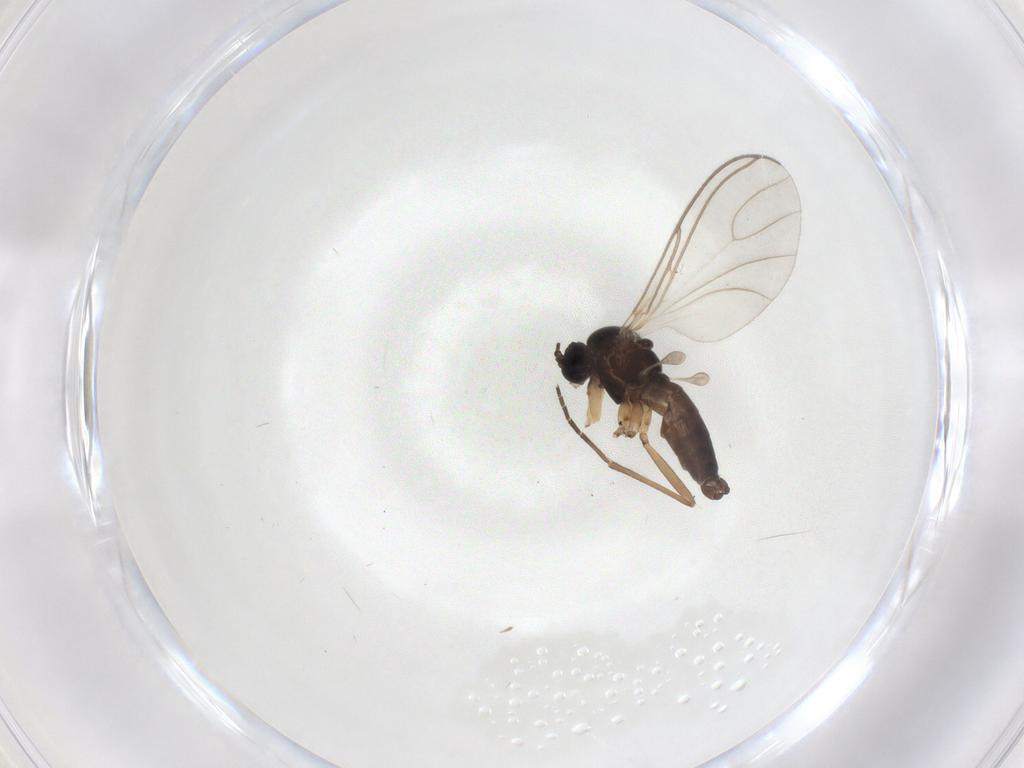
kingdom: Animalia
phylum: Arthropoda
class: Insecta
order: Diptera
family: Sciaridae
